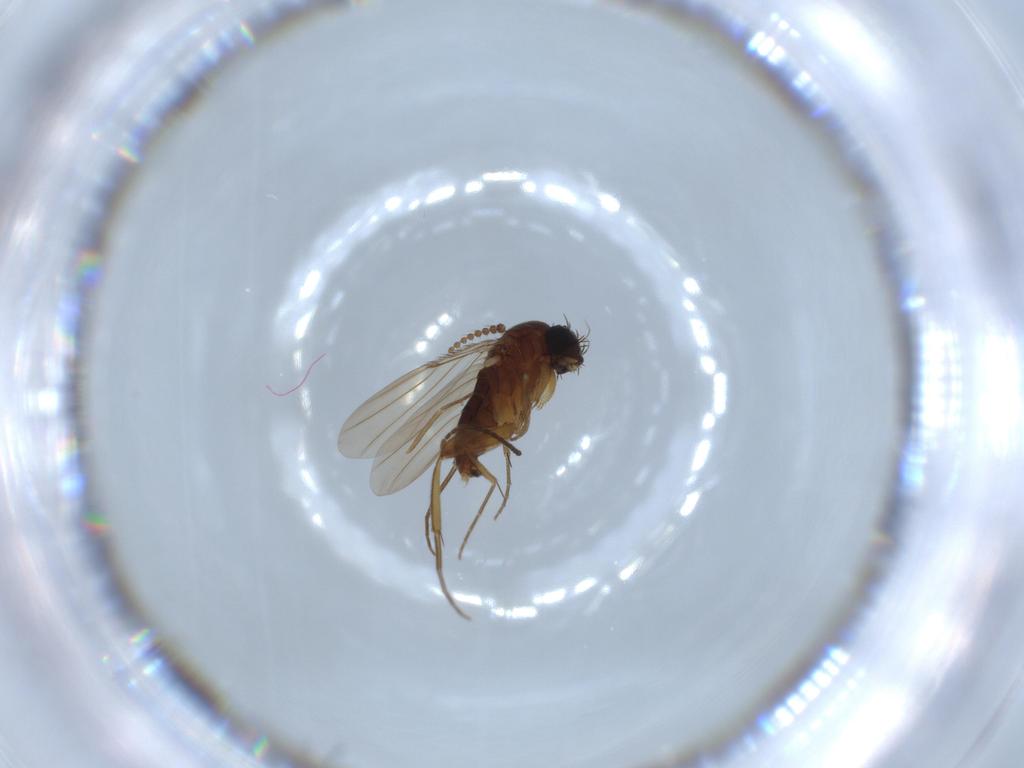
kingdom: Animalia
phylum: Arthropoda
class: Insecta
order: Diptera
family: Phoridae
